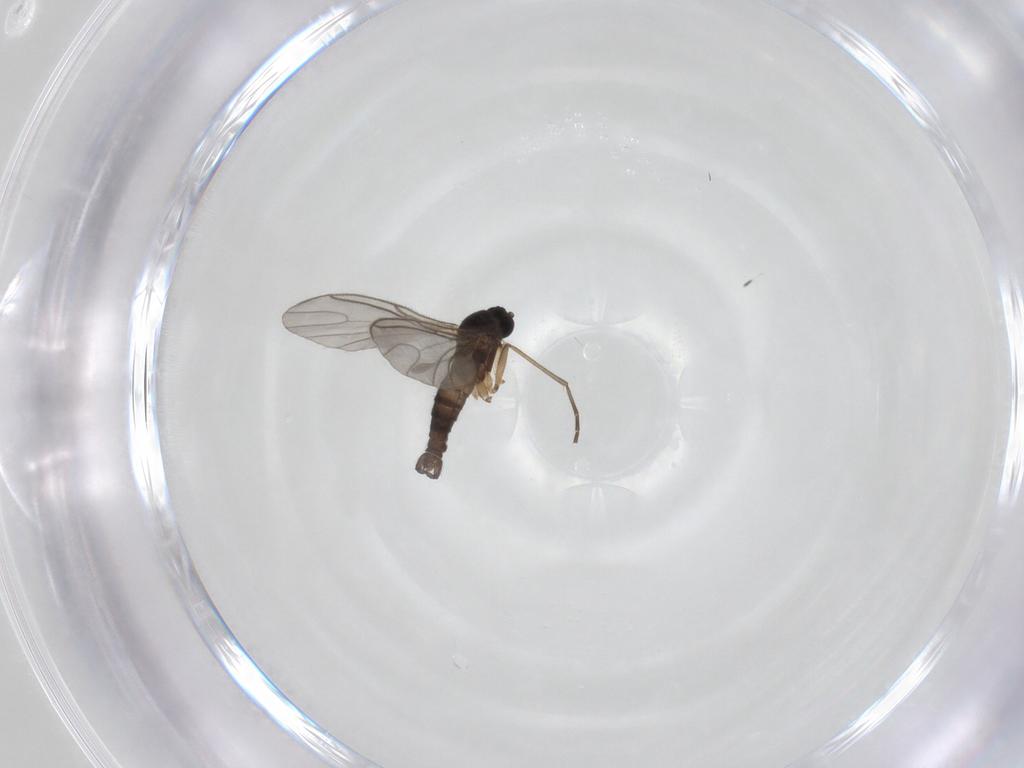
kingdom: Animalia
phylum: Arthropoda
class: Insecta
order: Diptera
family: Sciaridae
